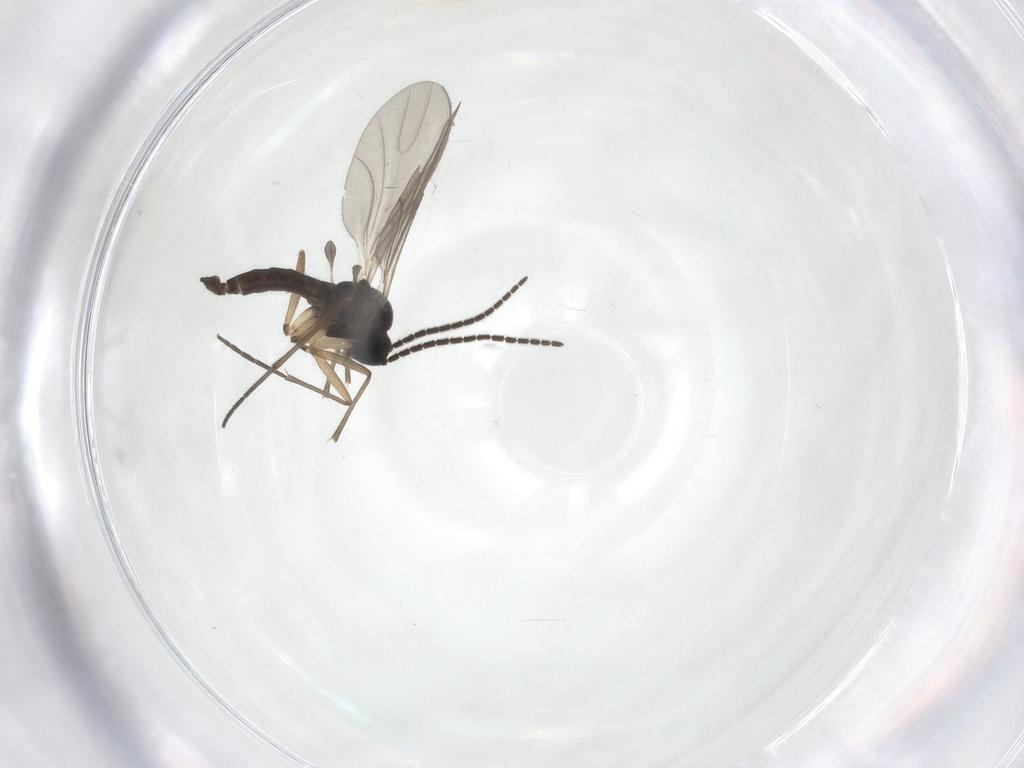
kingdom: Animalia
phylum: Arthropoda
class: Insecta
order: Diptera
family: Sciaridae
